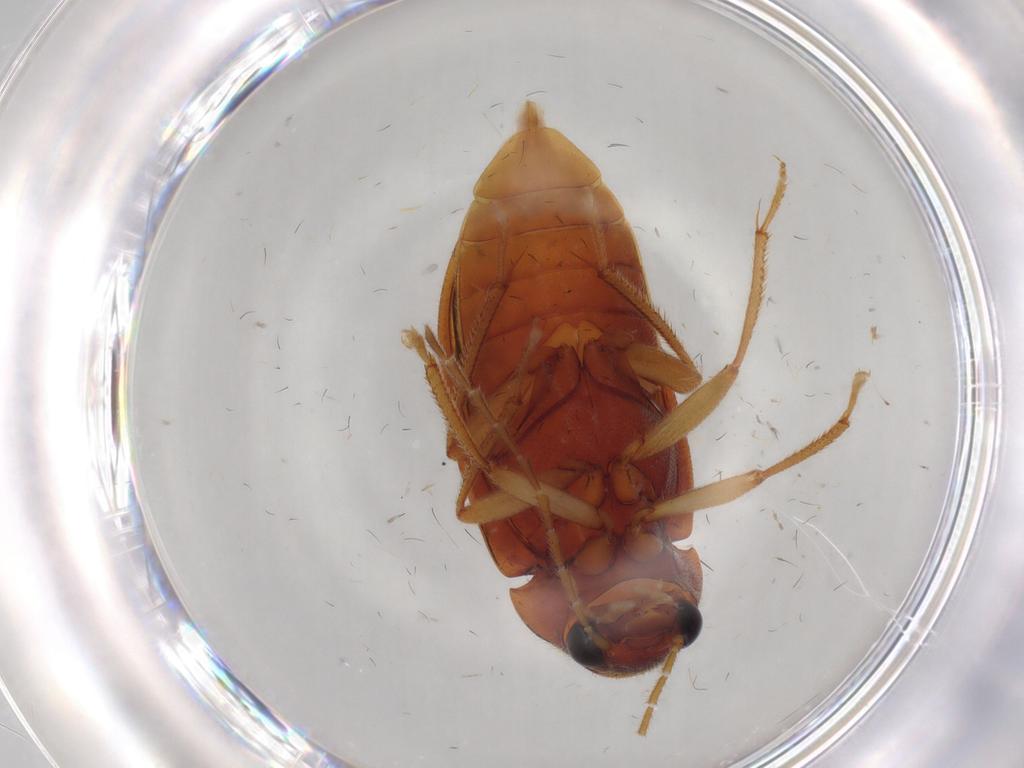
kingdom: Animalia
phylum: Arthropoda
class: Insecta
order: Coleoptera
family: Ptilodactylidae
